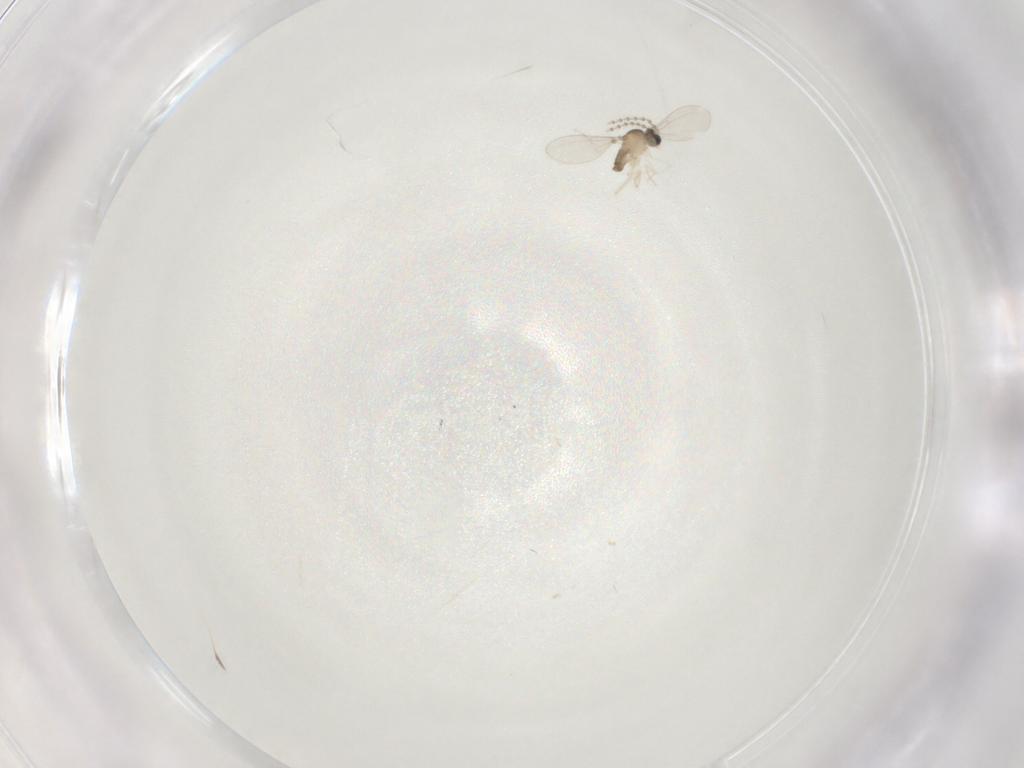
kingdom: Animalia
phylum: Arthropoda
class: Insecta
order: Diptera
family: Cecidomyiidae
